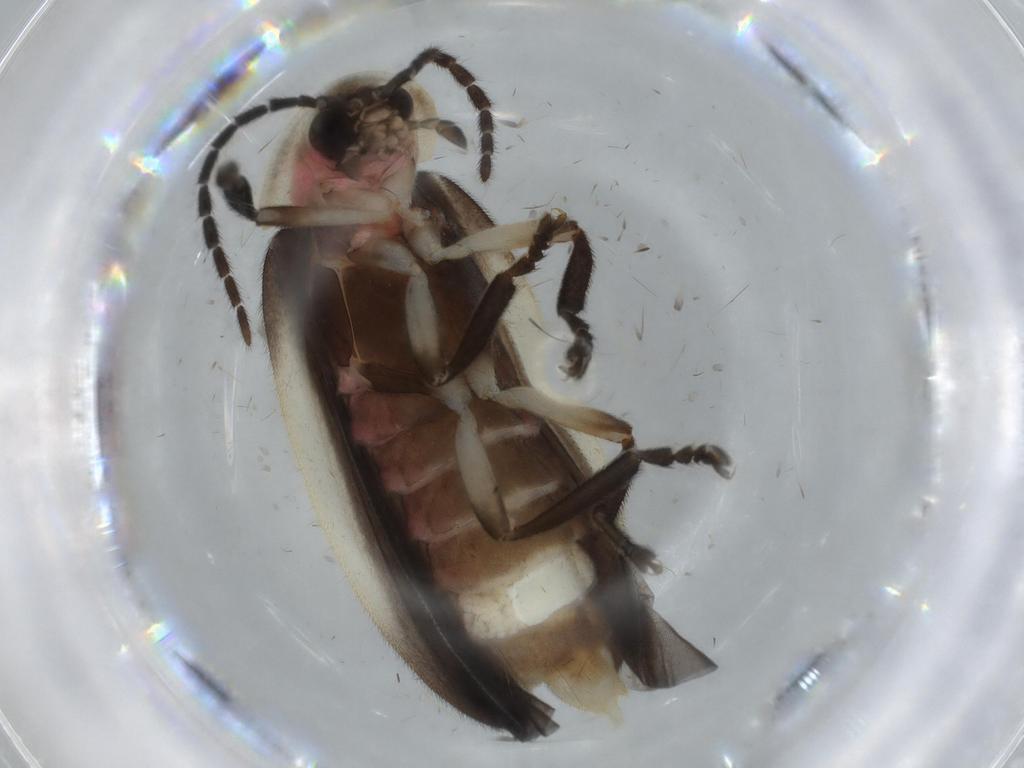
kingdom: Animalia
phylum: Arthropoda
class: Insecta
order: Coleoptera
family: Lampyridae
